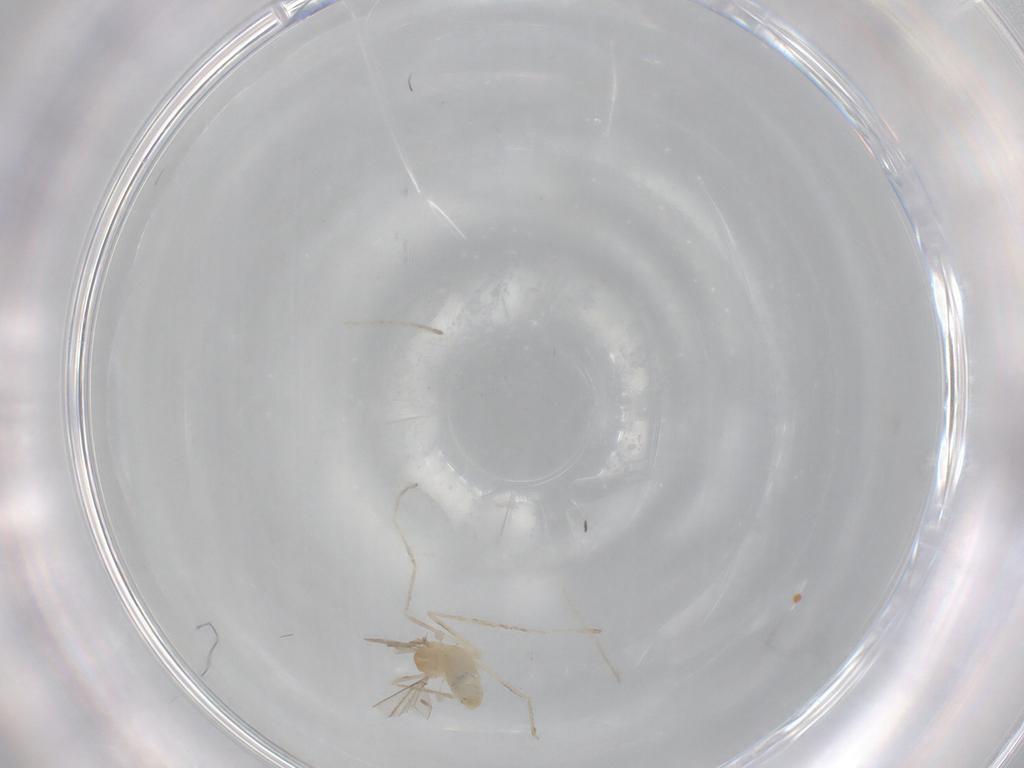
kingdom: Animalia
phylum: Arthropoda
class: Insecta
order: Diptera
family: Cecidomyiidae
